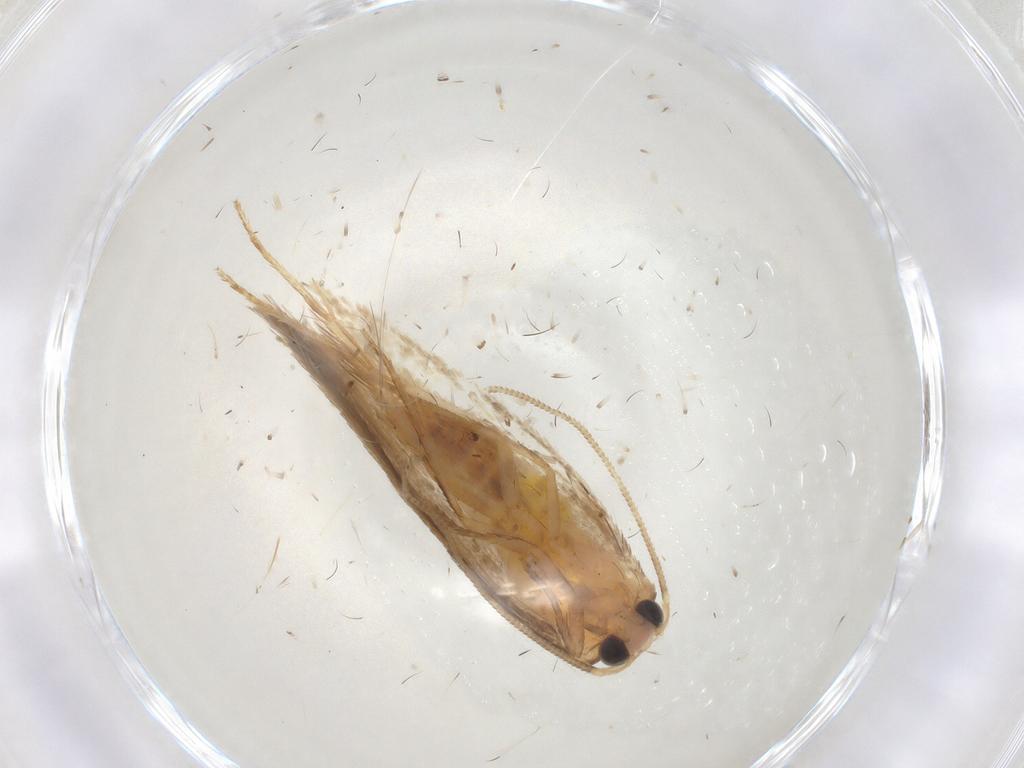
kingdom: Animalia
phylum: Arthropoda
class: Insecta
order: Lepidoptera
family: Nepticulidae
